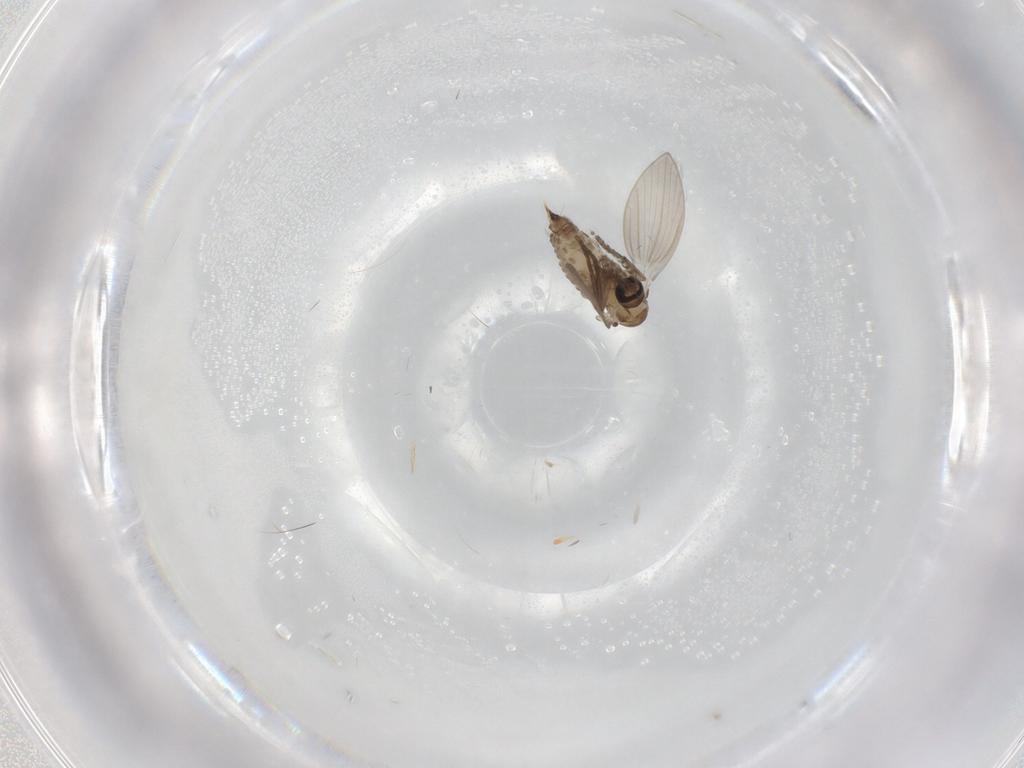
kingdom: Animalia
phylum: Arthropoda
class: Insecta
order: Diptera
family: Psychodidae
